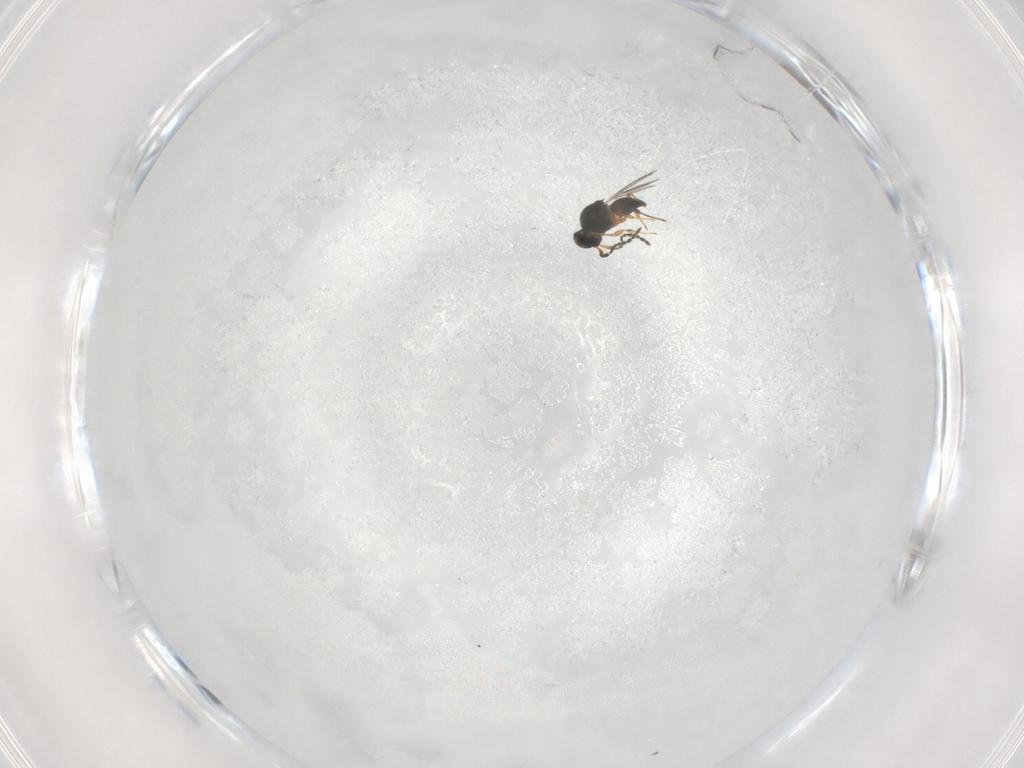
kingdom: Animalia
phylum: Arthropoda
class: Insecta
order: Hymenoptera
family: Platygastridae
